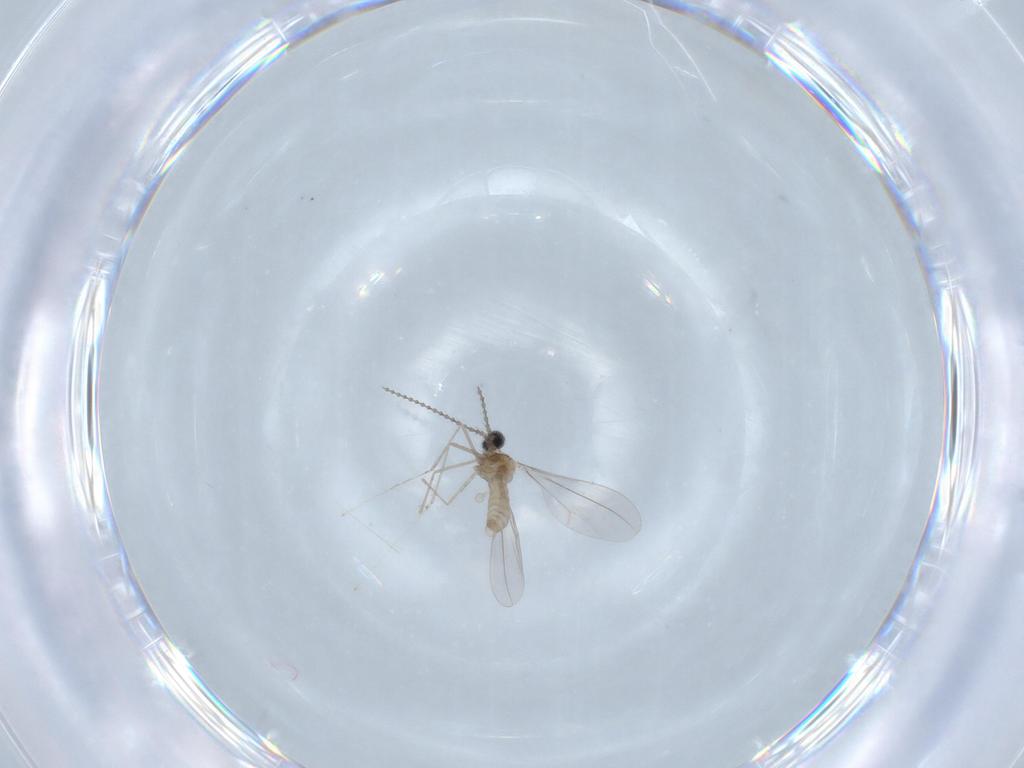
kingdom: Animalia
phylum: Arthropoda
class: Insecta
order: Diptera
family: Cecidomyiidae
